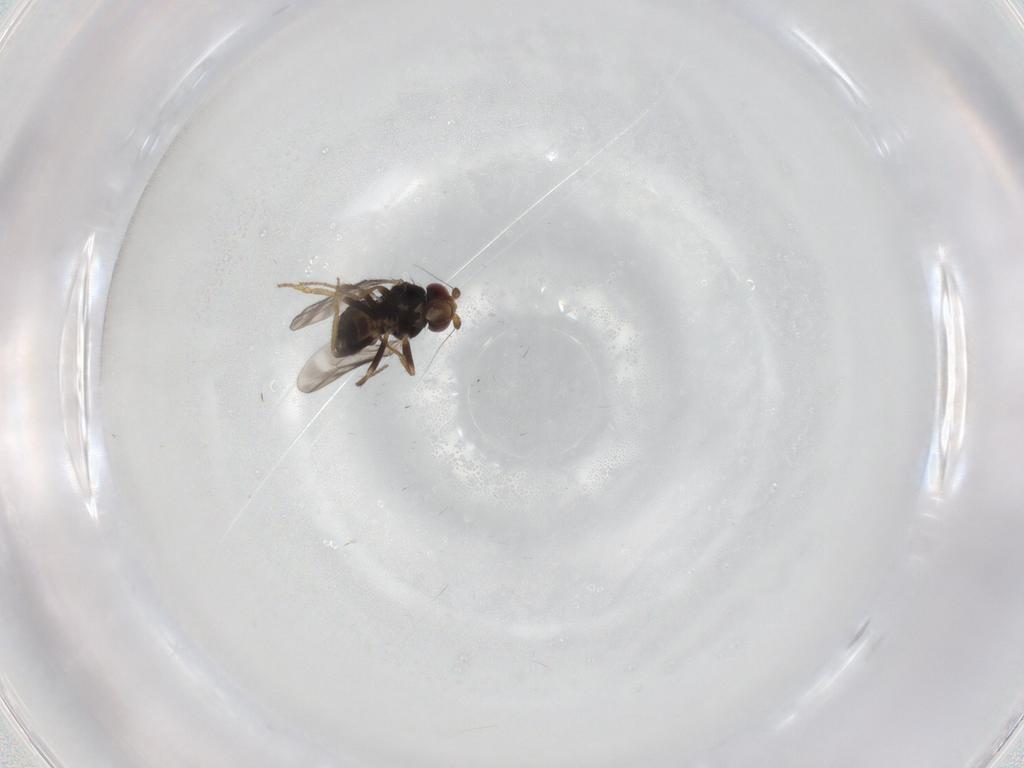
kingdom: Animalia
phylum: Arthropoda
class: Insecta
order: Diptera
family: Sphaeroceridae
